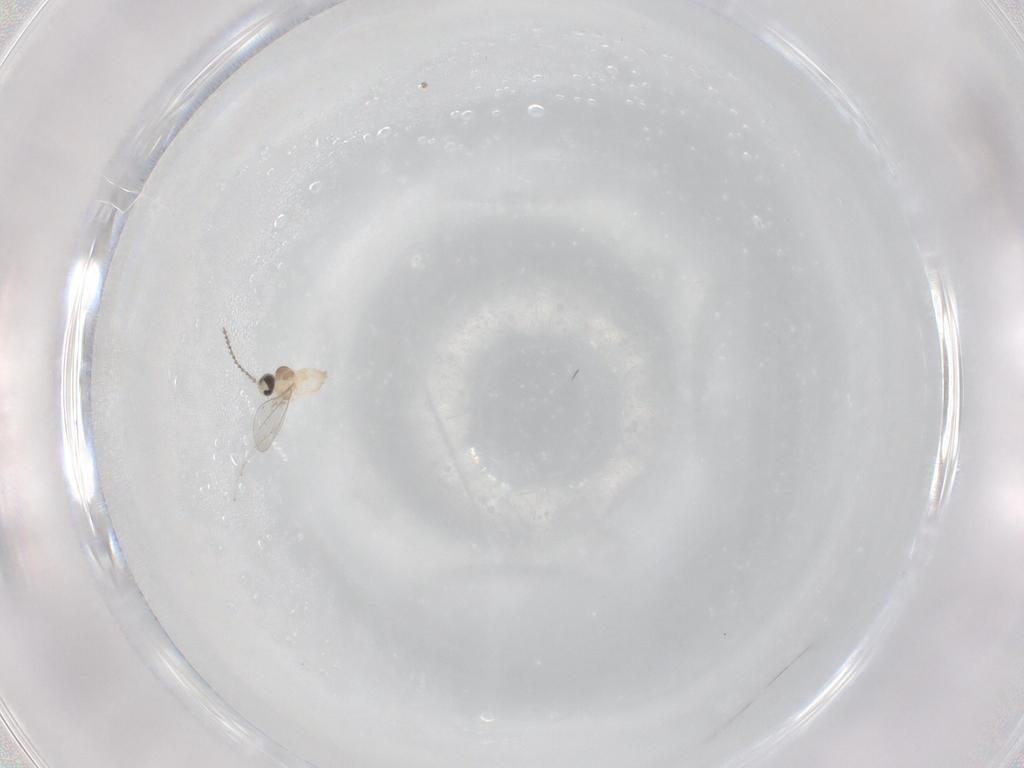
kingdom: Animalia
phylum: Arthropoda
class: Insecta
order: Diptera
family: Cecidomyiidae
